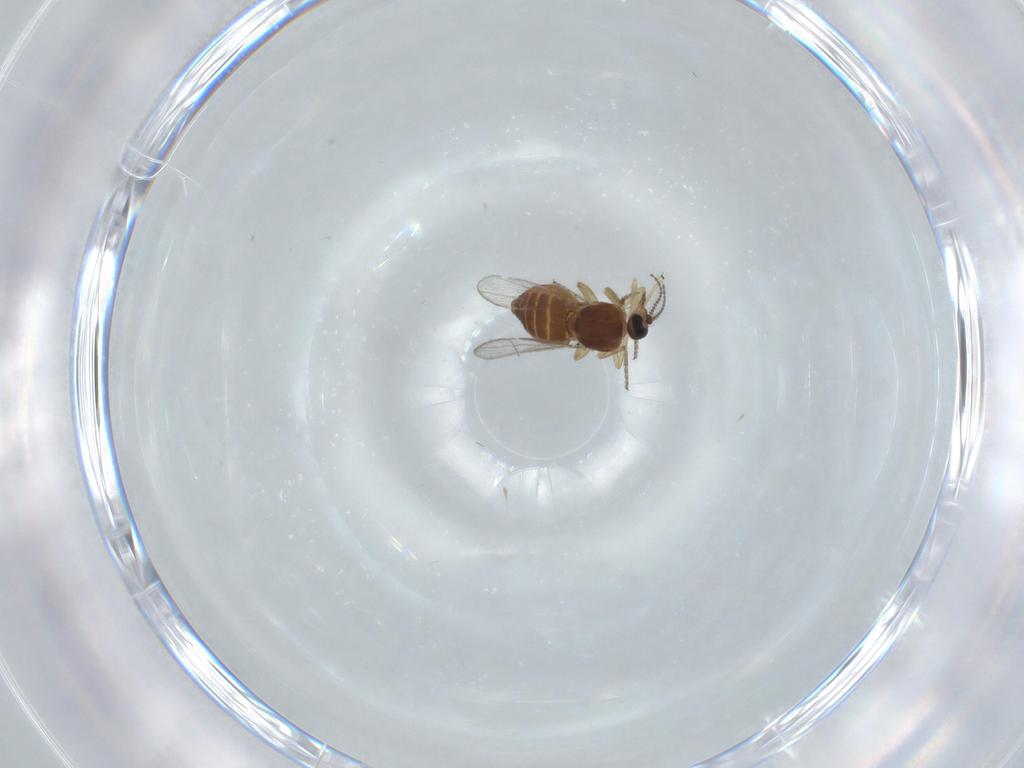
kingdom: Animalia
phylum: Arthropoda
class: Insecta
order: Diptera
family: Ceratopogonidae
